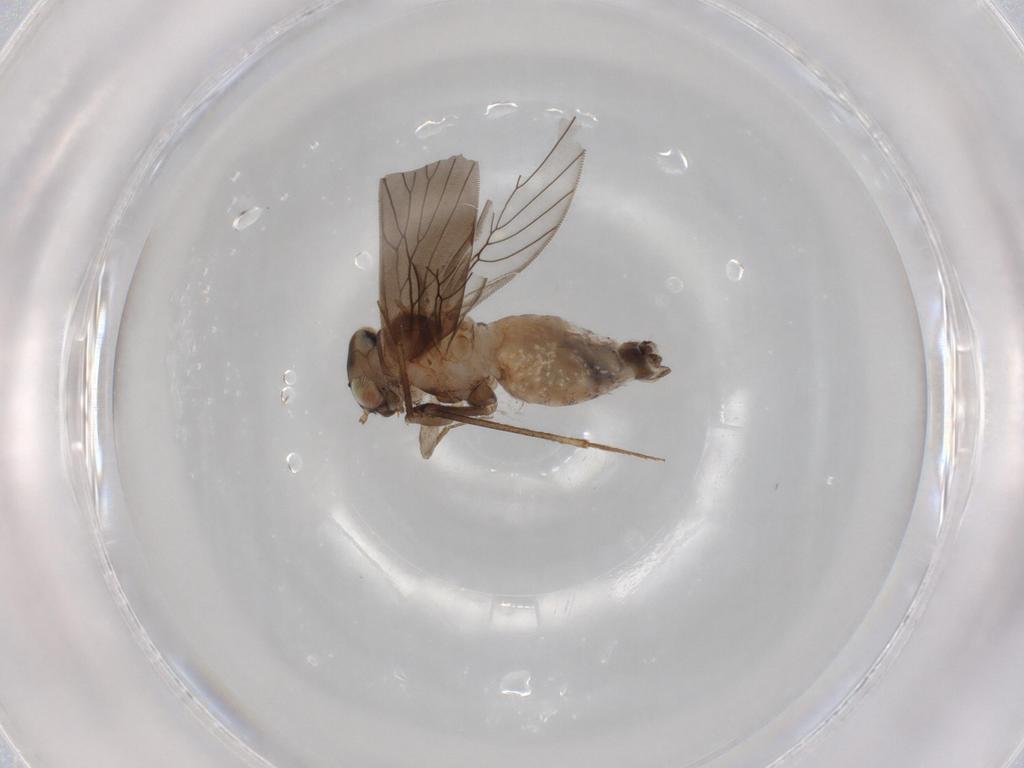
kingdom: Animalia
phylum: Arthropoda
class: Insecta
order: Psocodea
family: Lepidopsocidae
